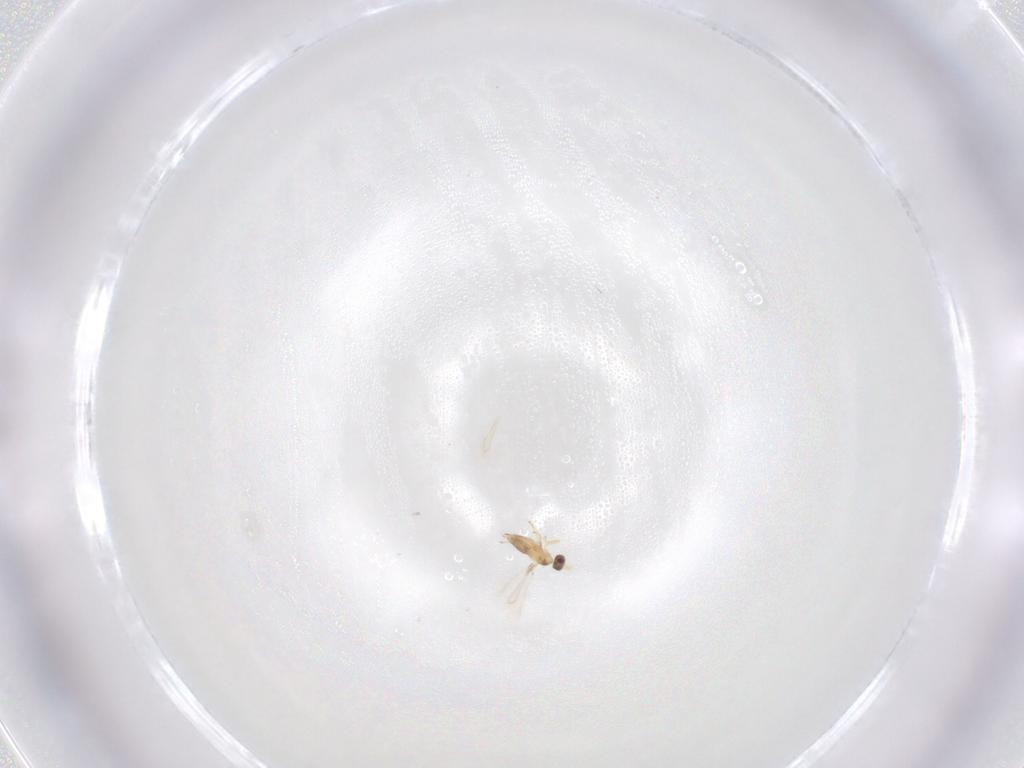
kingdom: Animalia
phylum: Arthropoda
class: Insecta
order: Hymenoptera
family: Mymaridae
